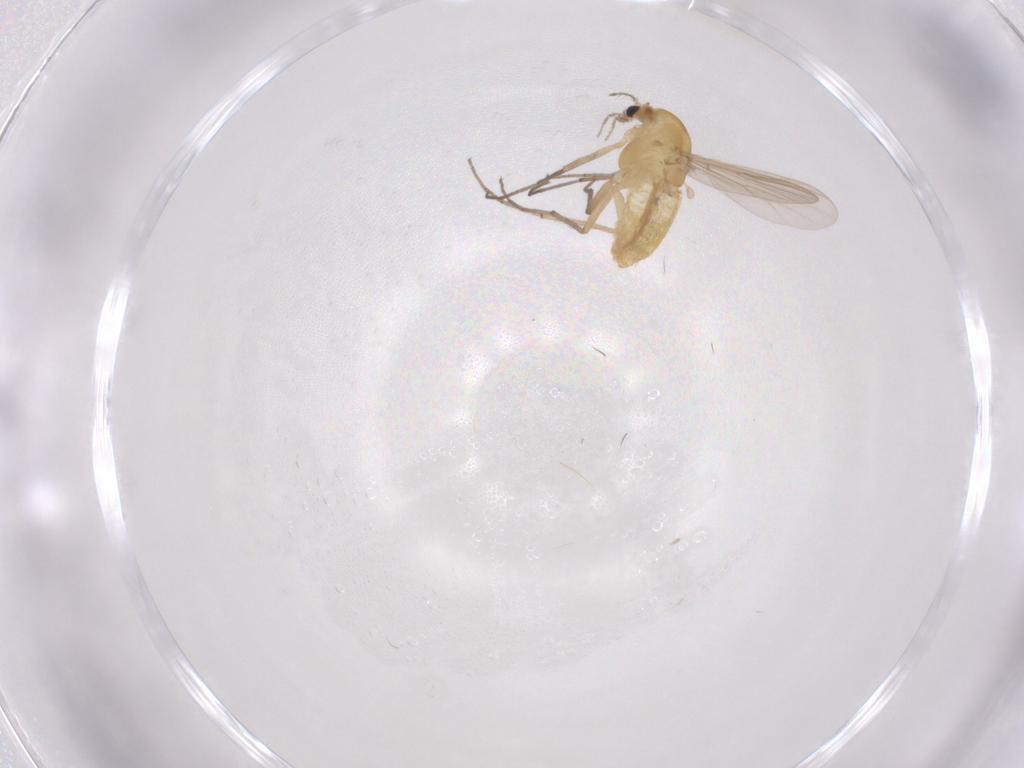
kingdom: Animalia
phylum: Arthropoda
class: Insecta
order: Diptera
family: Chironomidae
